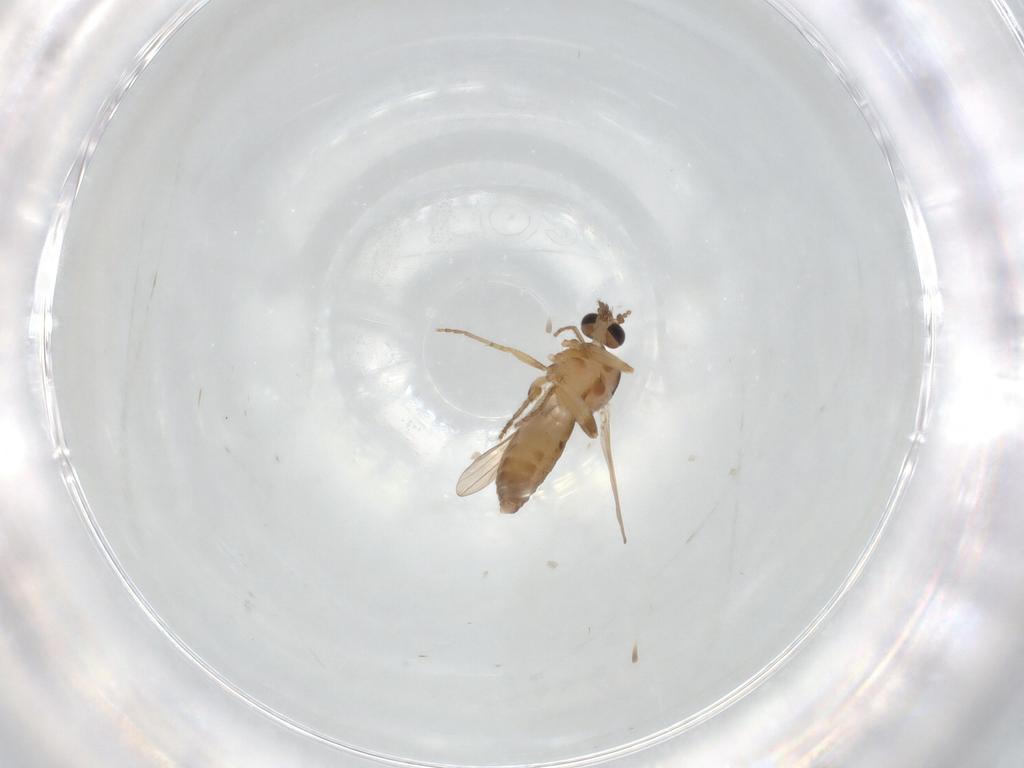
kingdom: Animalia
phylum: Arthropoda
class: Insecta
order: Diptera
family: Ceratopogonidae
